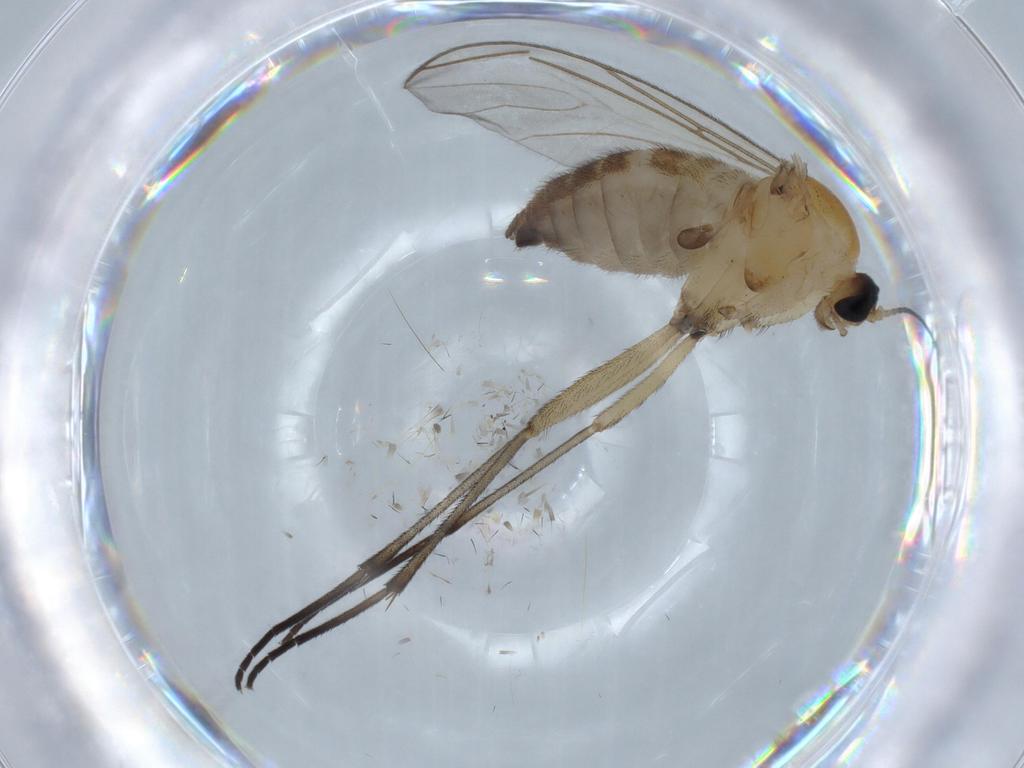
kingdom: Animalia
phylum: Arthropoda
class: Insecta
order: Diptera
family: Sciaridae
